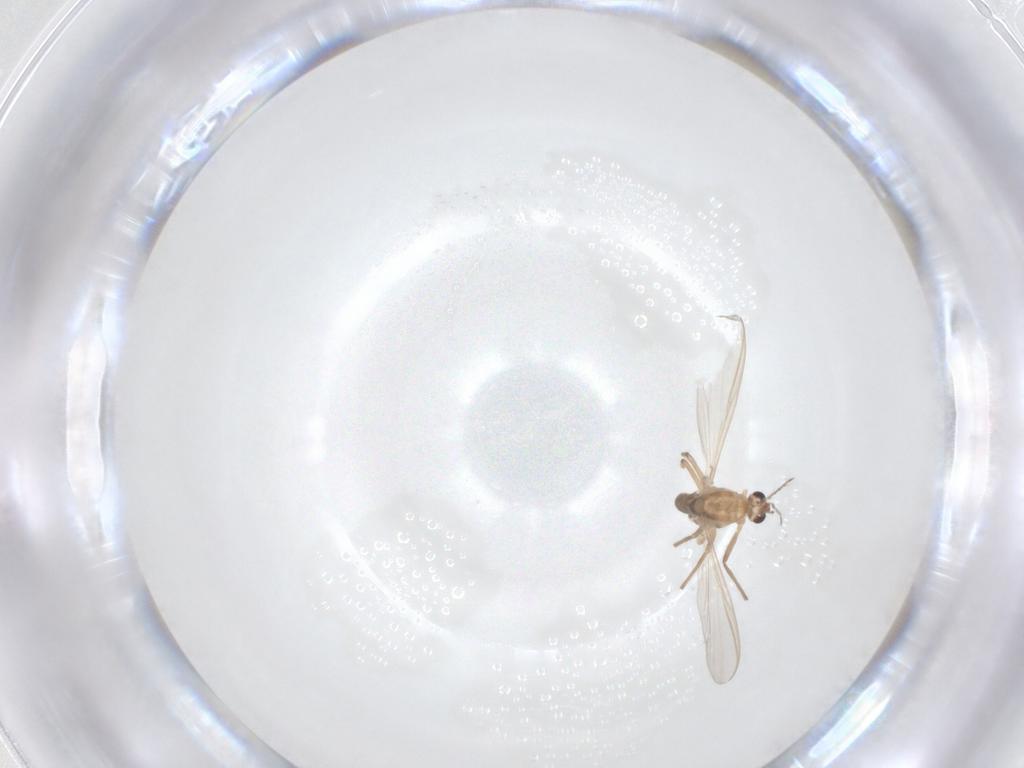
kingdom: Animalia
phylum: Arthropoda
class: Insecta
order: Diptera
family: Chironomidae
